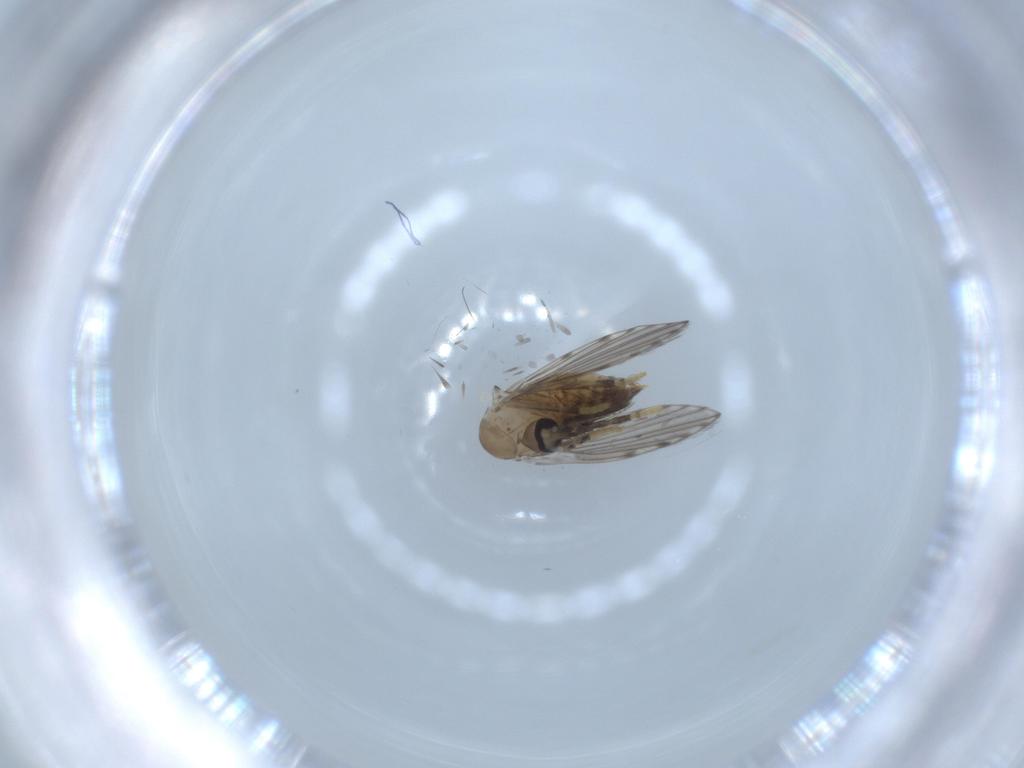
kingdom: Animalia
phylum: Arthropoda
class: Insecta
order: Diptera
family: Psychodidae
